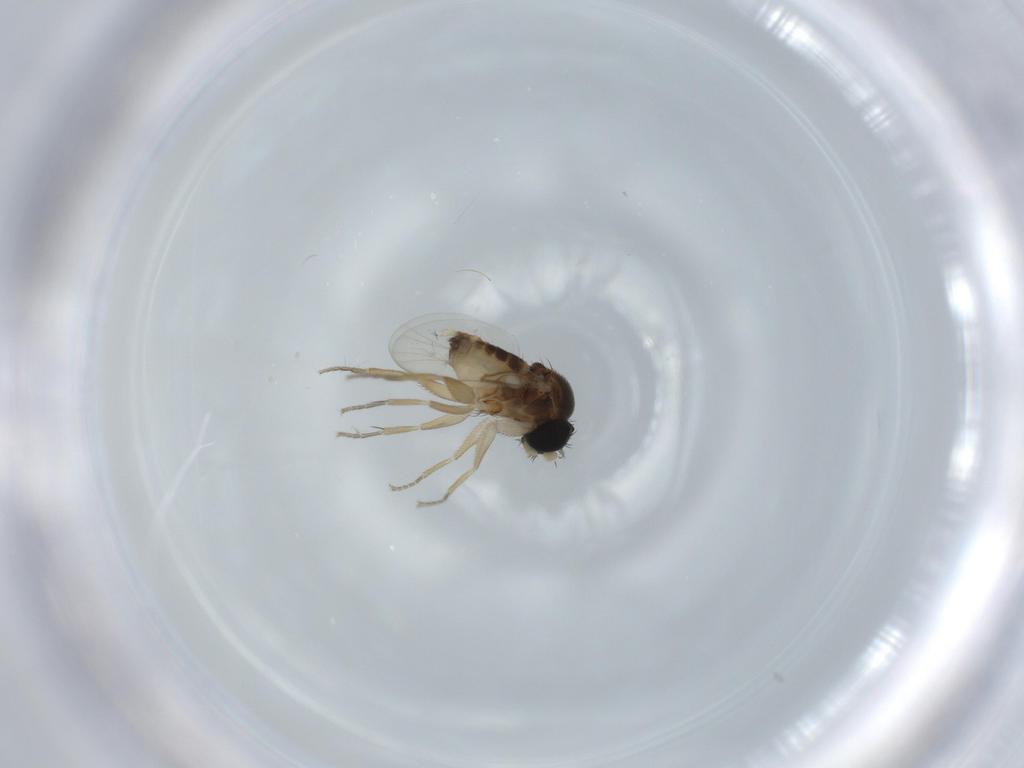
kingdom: Animalia
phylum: Arthropoda
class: Insecta
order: Diptera
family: Phoridae
